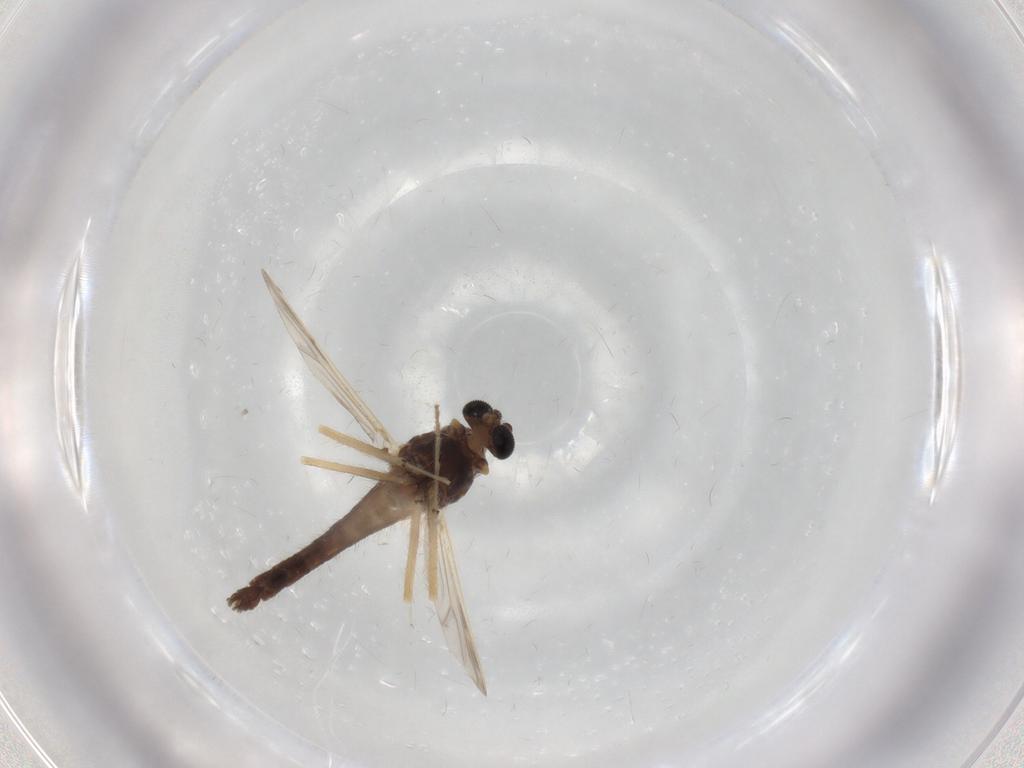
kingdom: Animalia
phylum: Arthropoda
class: Insecta
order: Diptera
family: Chironomidae
